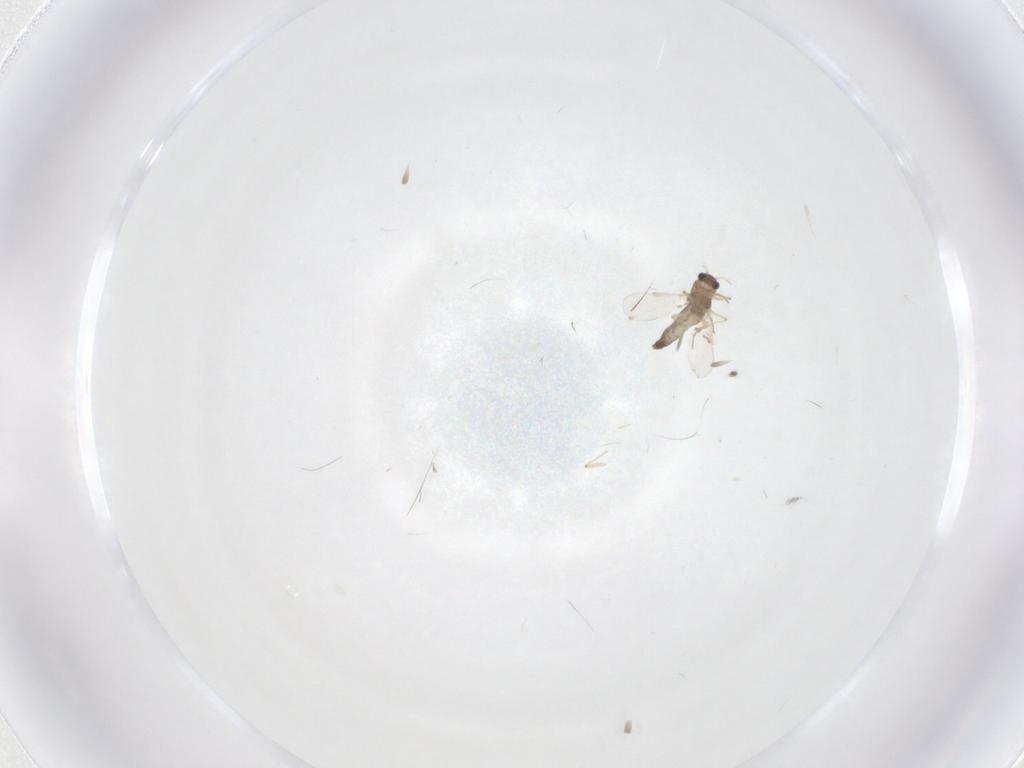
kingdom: Animalia
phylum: Arthropoda
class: Insecta
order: Diptera
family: Chironomidae
